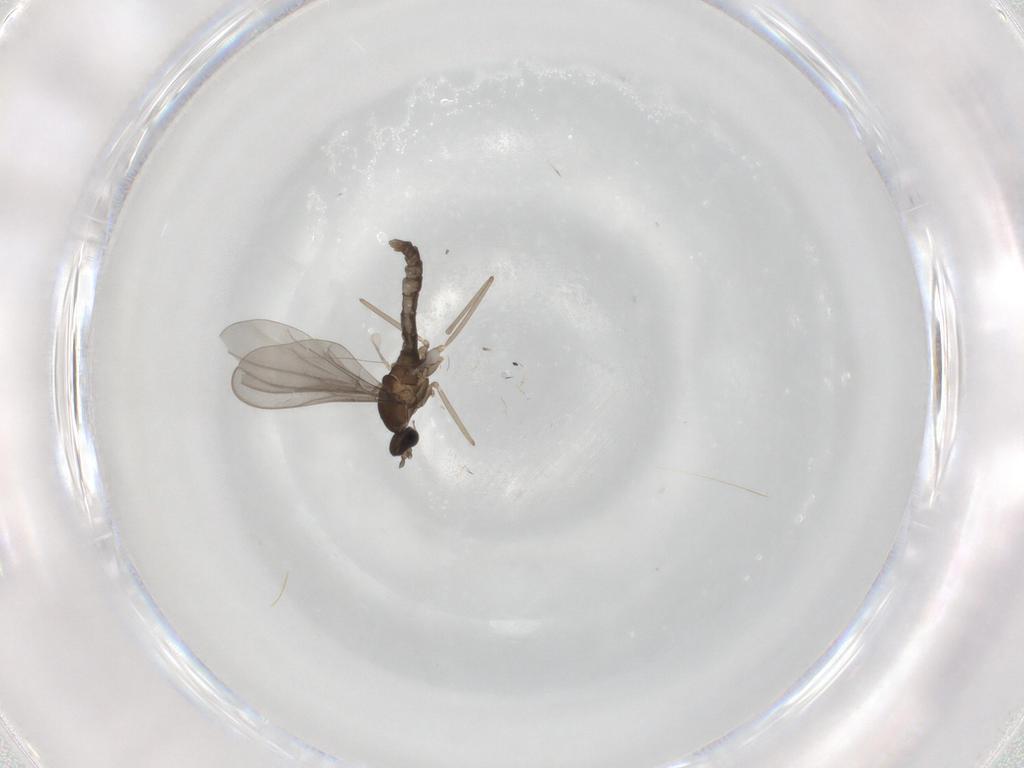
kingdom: Animalia
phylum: Arthropoda
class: Insecta
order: Diptera
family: Cecidomyiidae
